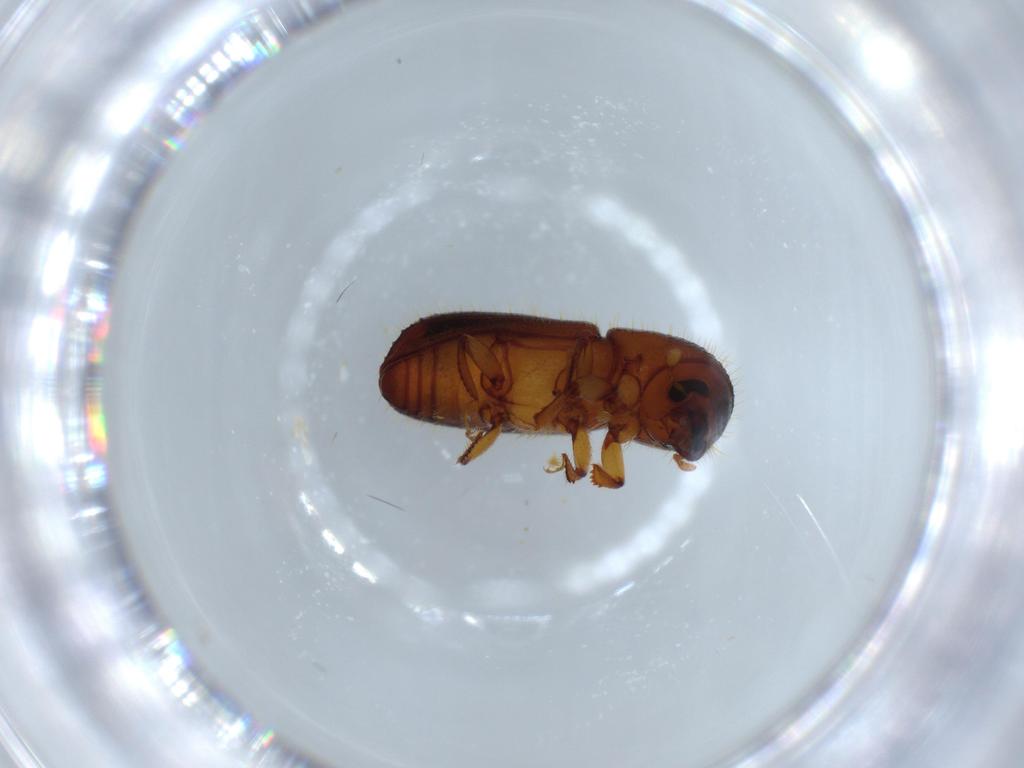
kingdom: Animalia
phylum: Arthropoda
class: Insecta
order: Coleoptera
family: Curculionidae
